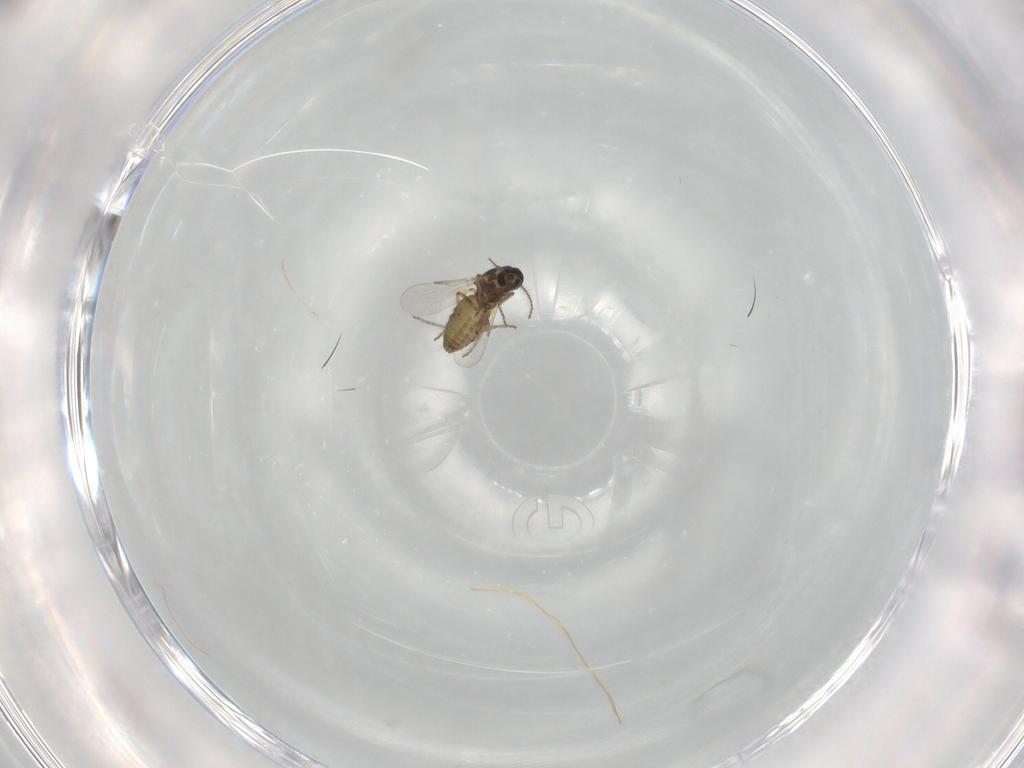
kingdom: Animalia
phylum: Arthropoda
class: Insecta
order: Diptera
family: Ceratopogonidae
